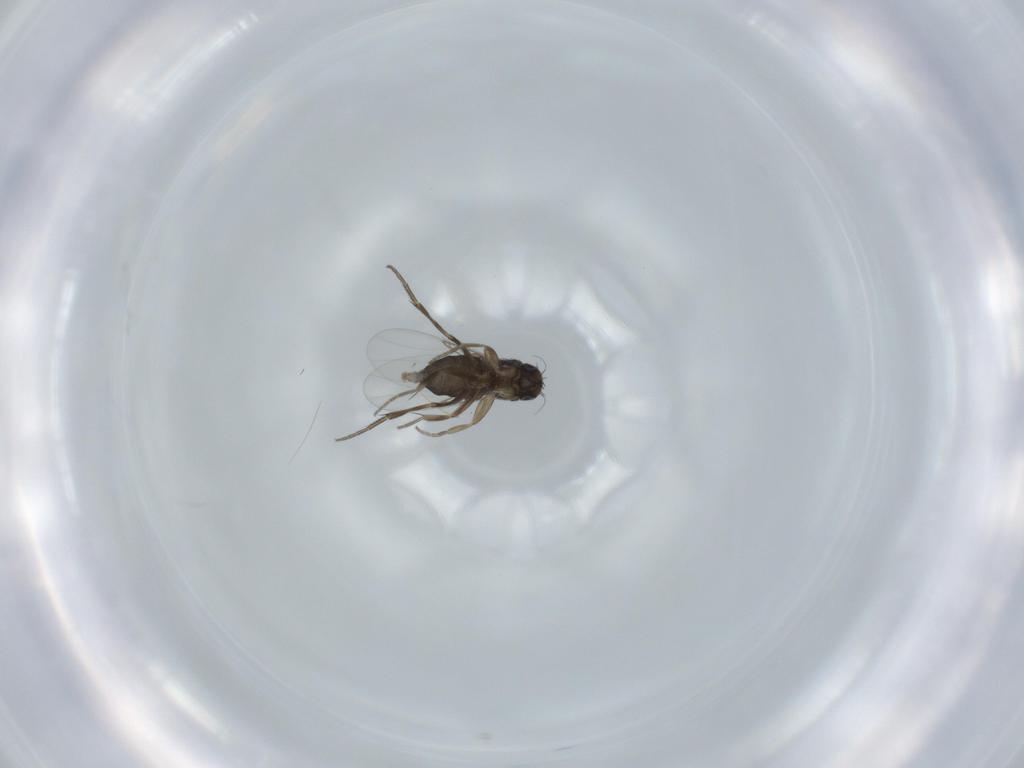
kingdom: Animalia
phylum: Arthropoda
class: Insecta
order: Diptera
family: Phoridae
